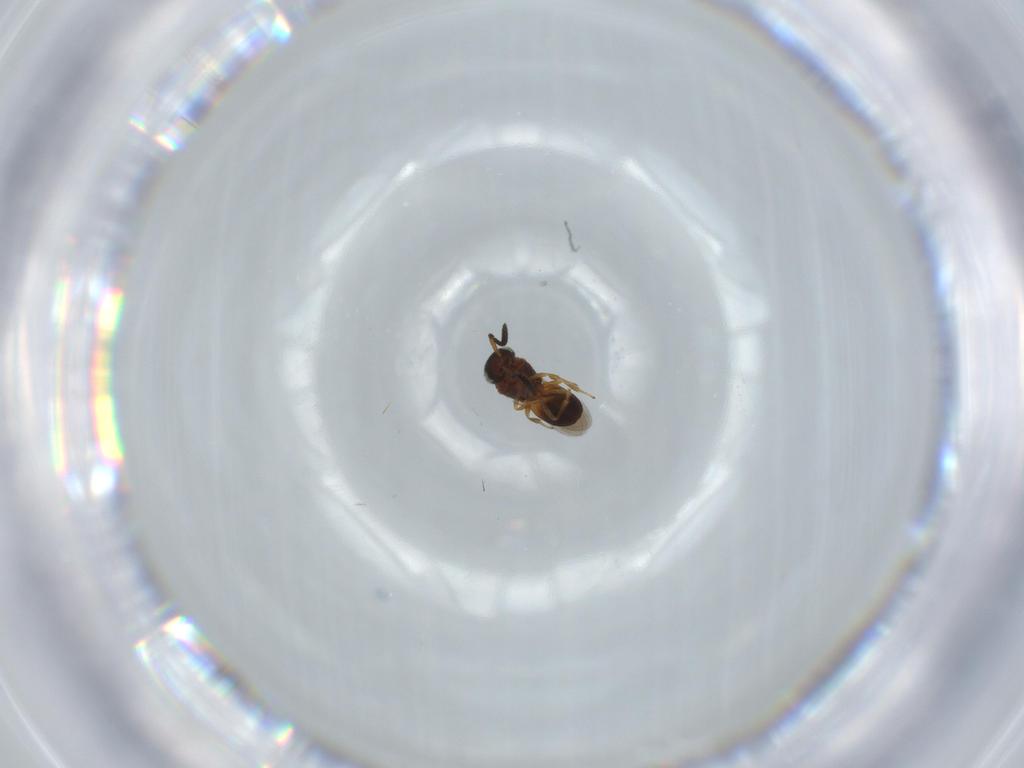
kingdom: Animalia
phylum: Arthropoda
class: Insecta
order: Hymenoptera
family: Scelionidae
